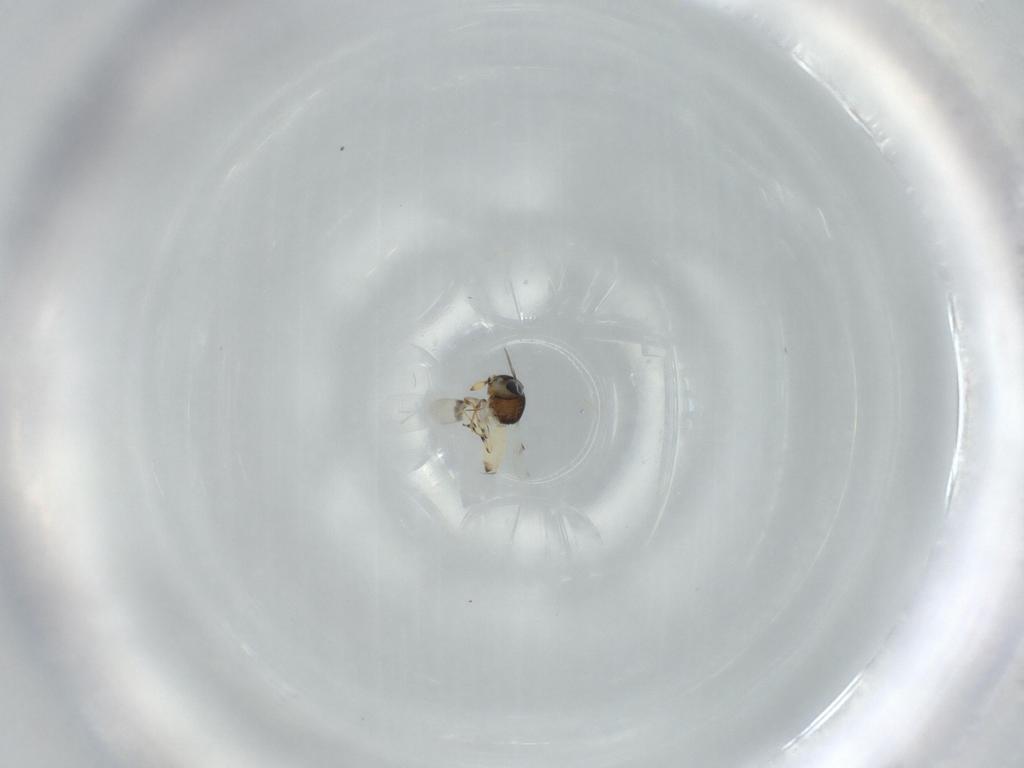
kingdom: Animalia
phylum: Arthropoda
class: Insecta
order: Hymenoptera
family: Scelionidae
